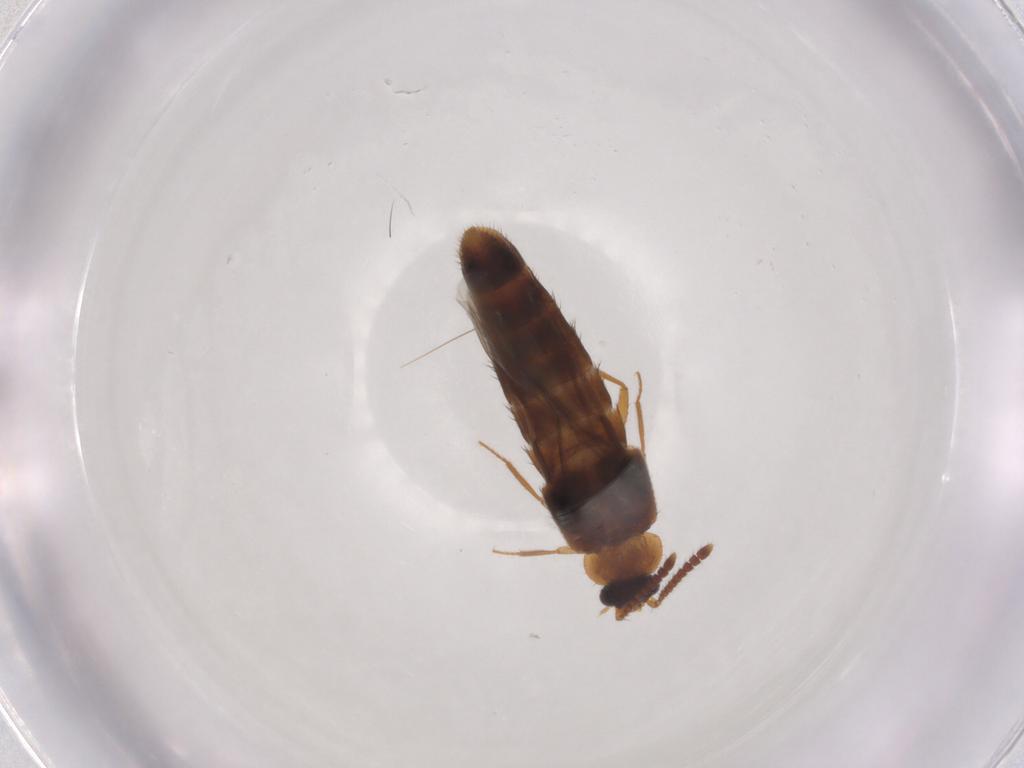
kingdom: Animalia
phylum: Arthropoda
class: Insecta
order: Coleoptera
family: Staphylinidae
